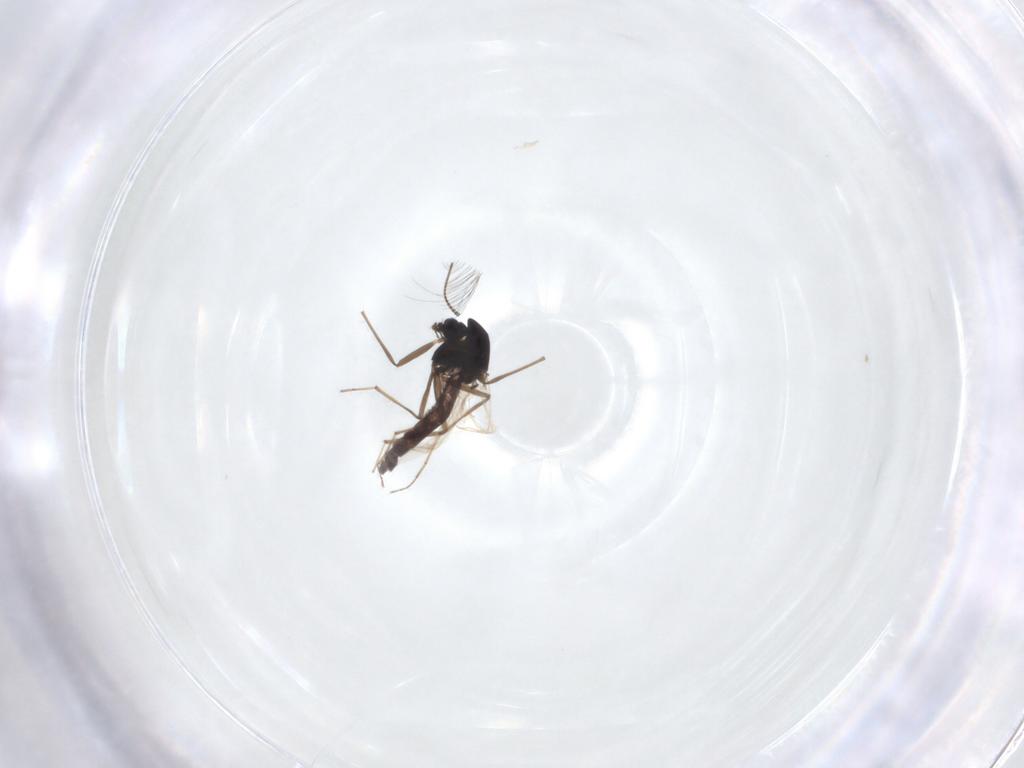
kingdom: Animalia
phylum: Arthropoda
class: Insecta
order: Diptera
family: Chironomidae
